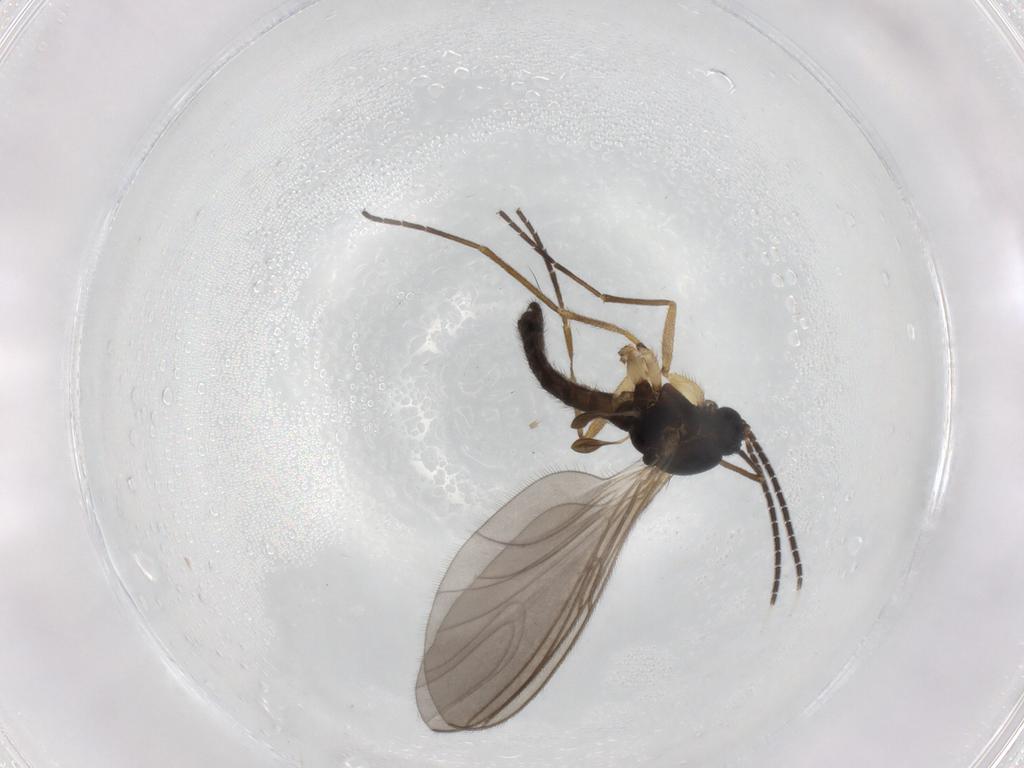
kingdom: Animalia
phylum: Arthropoda
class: Insecta
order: Diptera
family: Sciaridae
